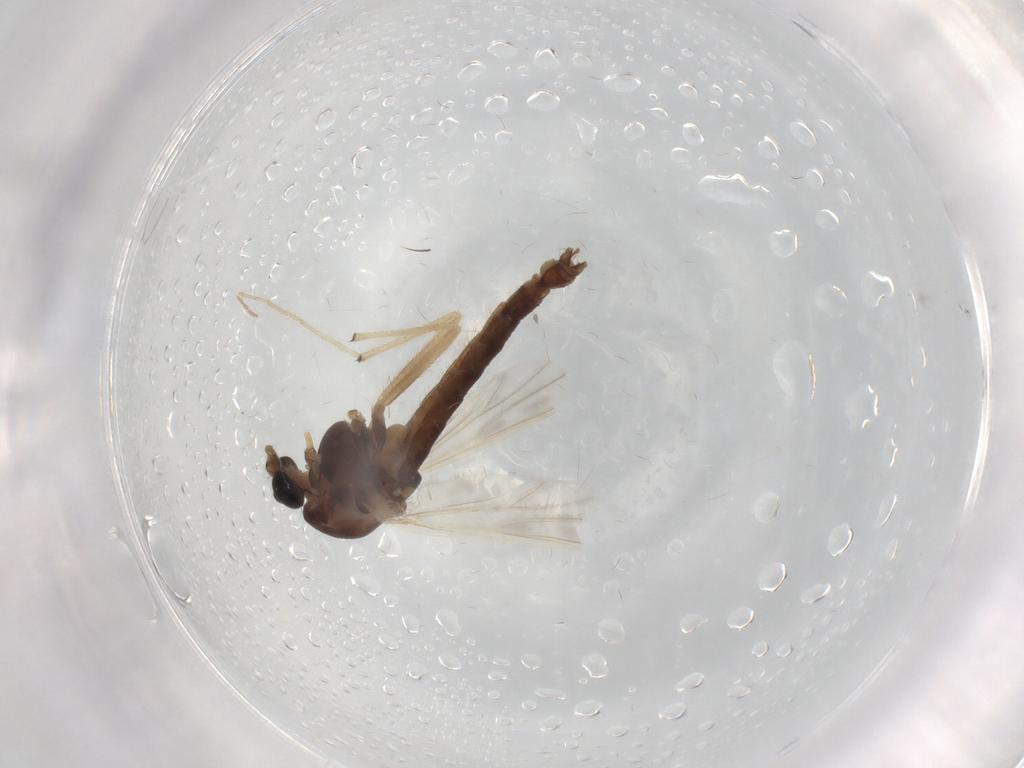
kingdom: Animalia
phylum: Arthropoda
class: Insecta
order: Diptera
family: Chironomidae
